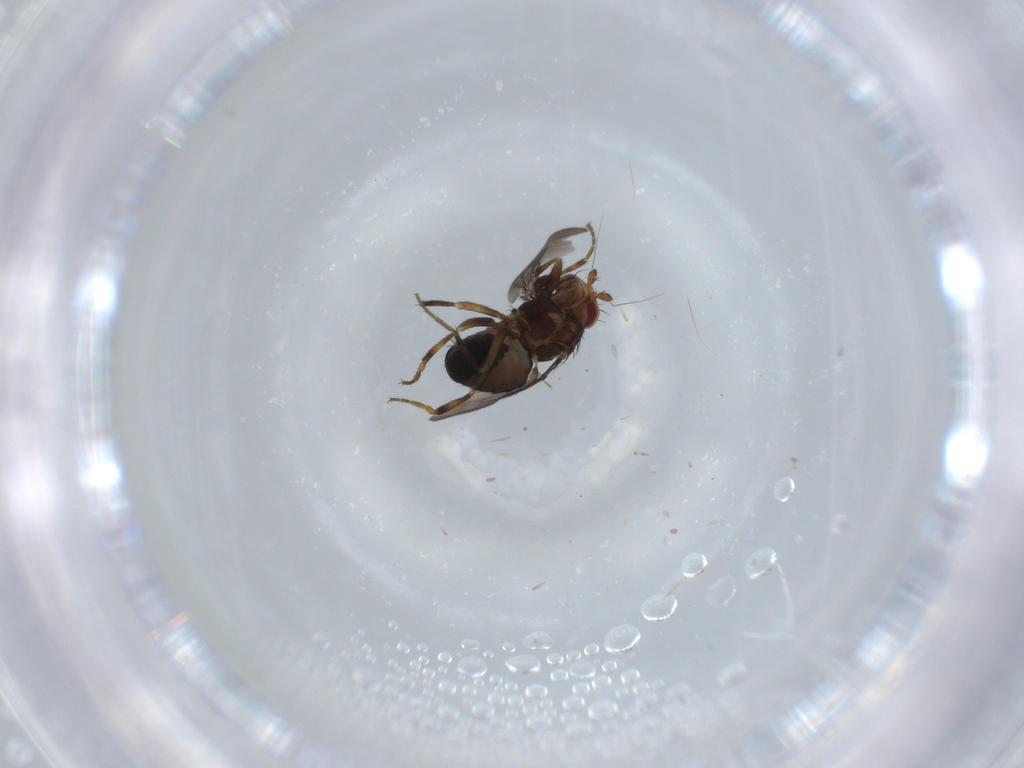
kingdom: Animalia
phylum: Arthropoda
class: Insecta
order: Diptera
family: Sphaeroceridae
